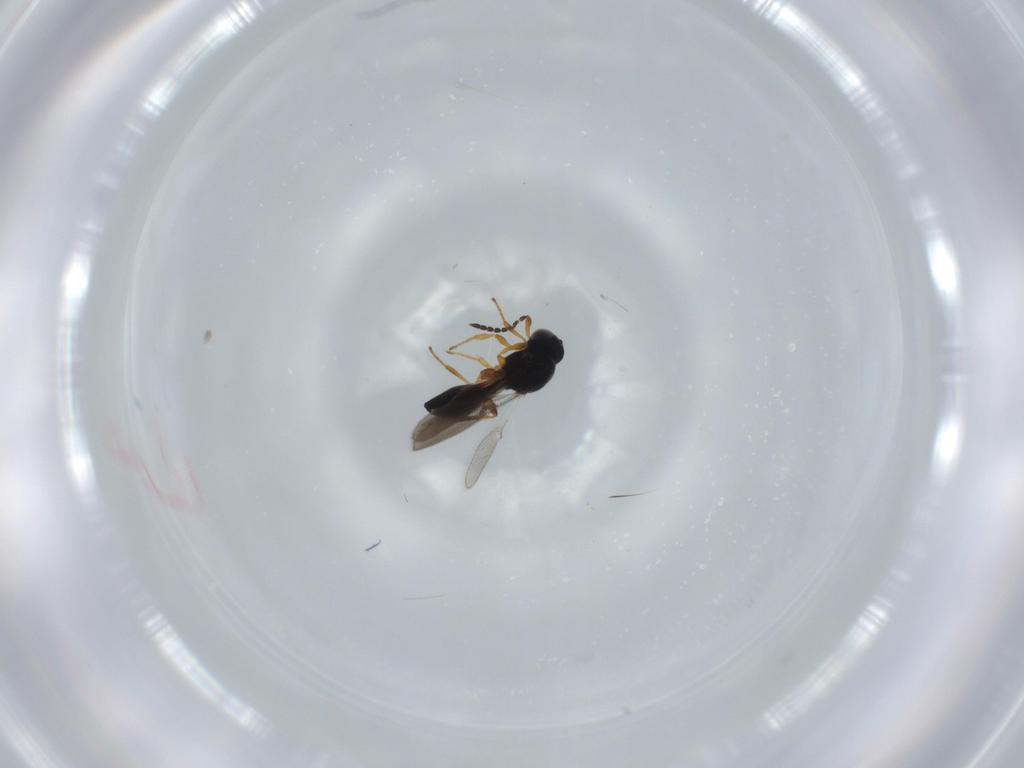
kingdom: Animalia
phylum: Arthropoda
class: Insecta
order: Hymenoptera
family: Platygastridae
